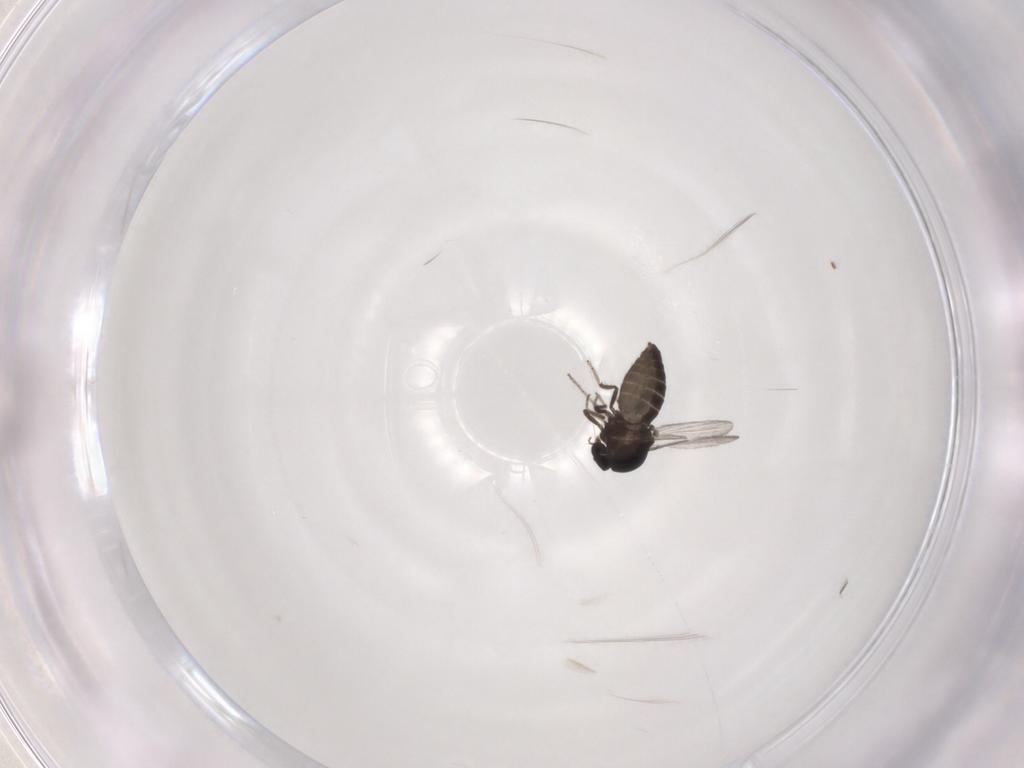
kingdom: Animalia
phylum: Arthropoda
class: Insecta
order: Diptera
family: Ceratopogonidae
